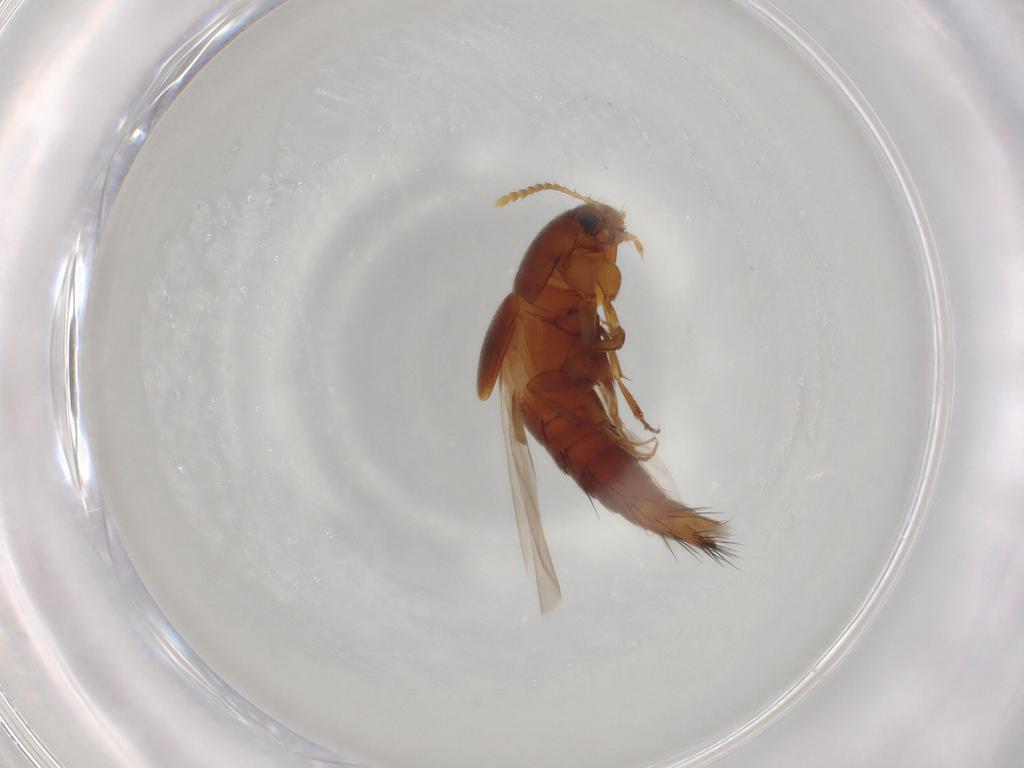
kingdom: Animalia
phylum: Arthropoda
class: Insecta
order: Coleoptera
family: Staphylinidae
